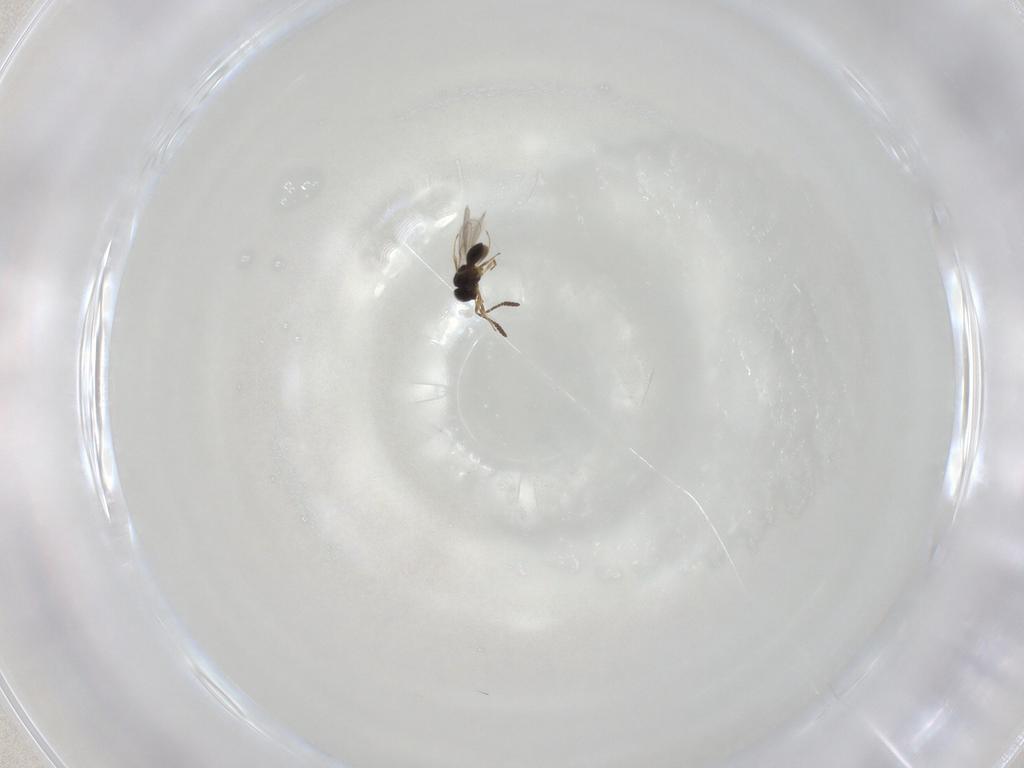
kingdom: Animalia
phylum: Arthropoda
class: Insecta
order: Hymenoptera
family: Scelionidae
